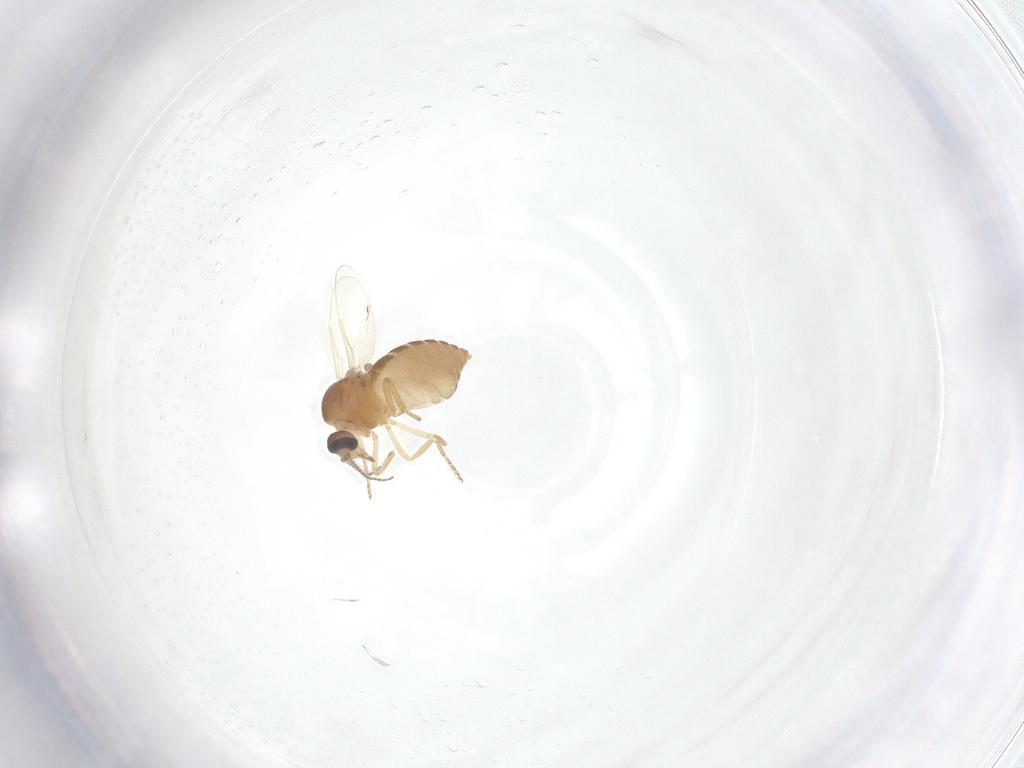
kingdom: Animalia
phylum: Arthropoda
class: Insecta
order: Diptera
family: Ceratopogonidae
